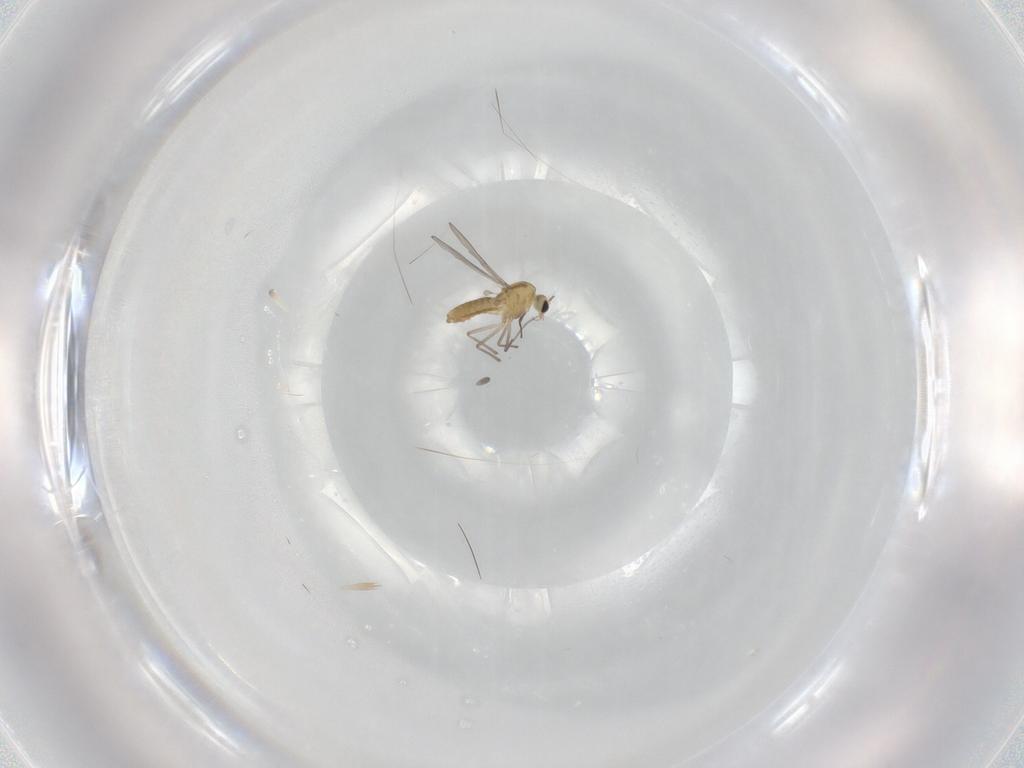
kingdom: Animalia
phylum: Arthropoda
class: Insecta
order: Diptera
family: Chironomidae
